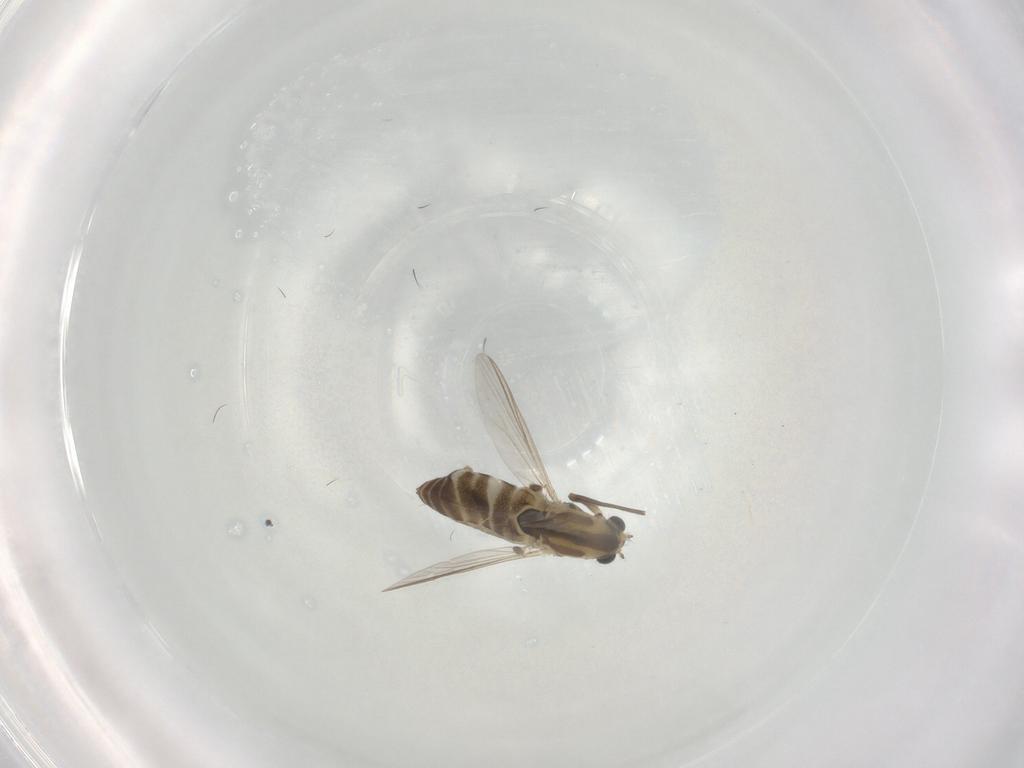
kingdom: Animalia
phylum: Arthropoda
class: Insecta
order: Diptera
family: Chironomidae
